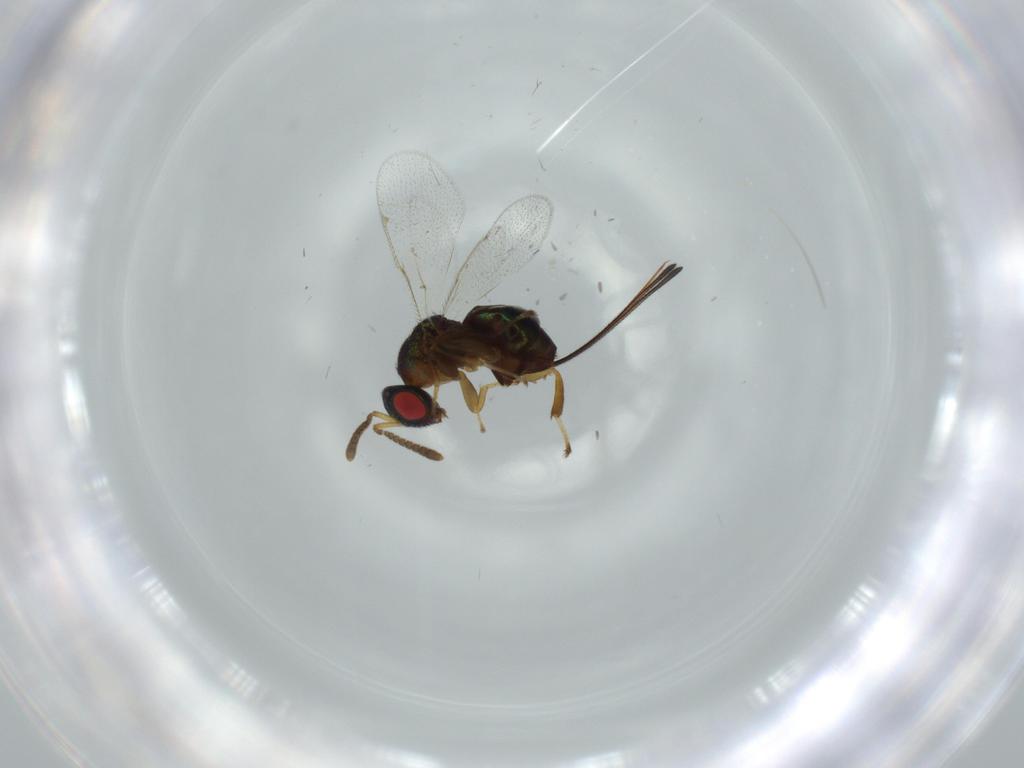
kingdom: Animalia
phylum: Arthropoda
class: Insecta
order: Hymenoptera
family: Torymidae
